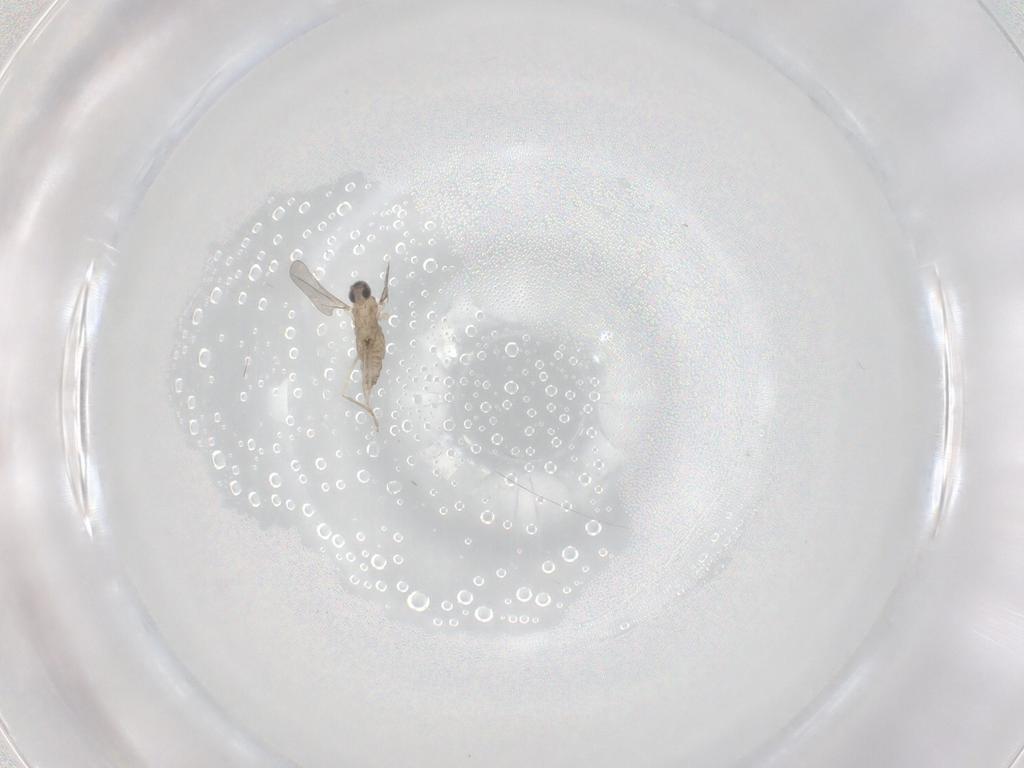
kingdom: Animalia
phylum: Arthropoda
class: Insecta
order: Diptera
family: Cecidomyiidae
